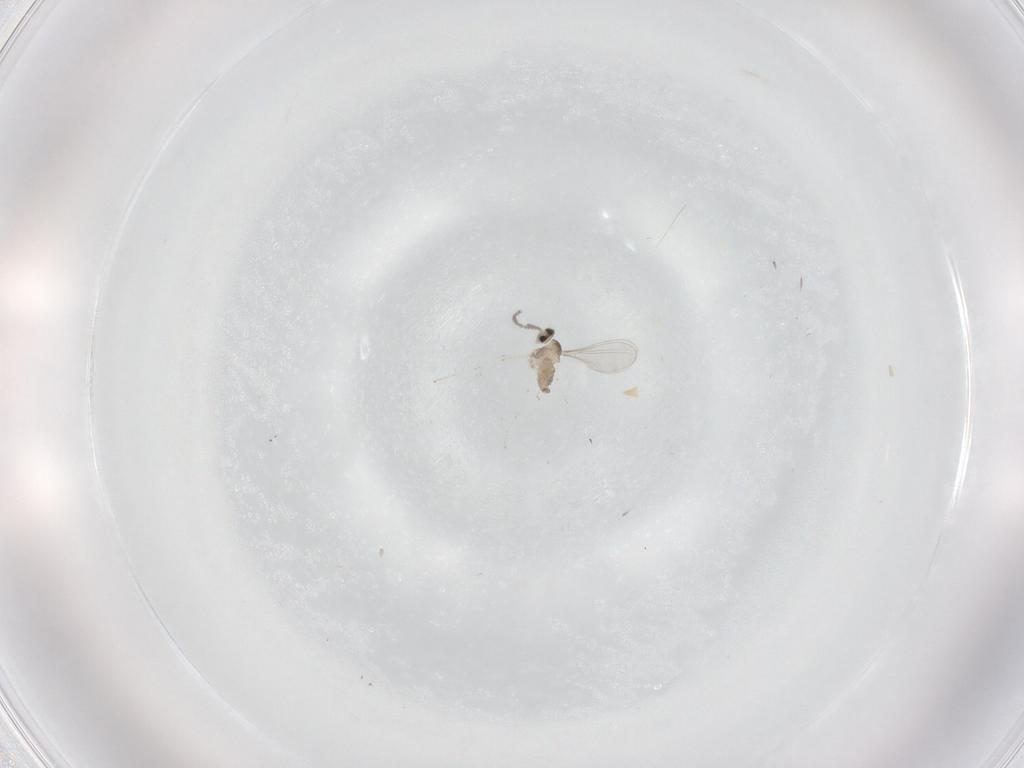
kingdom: Animalia
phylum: Arthropoda
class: Insecta
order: Diptera
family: Cecidomyiidae
